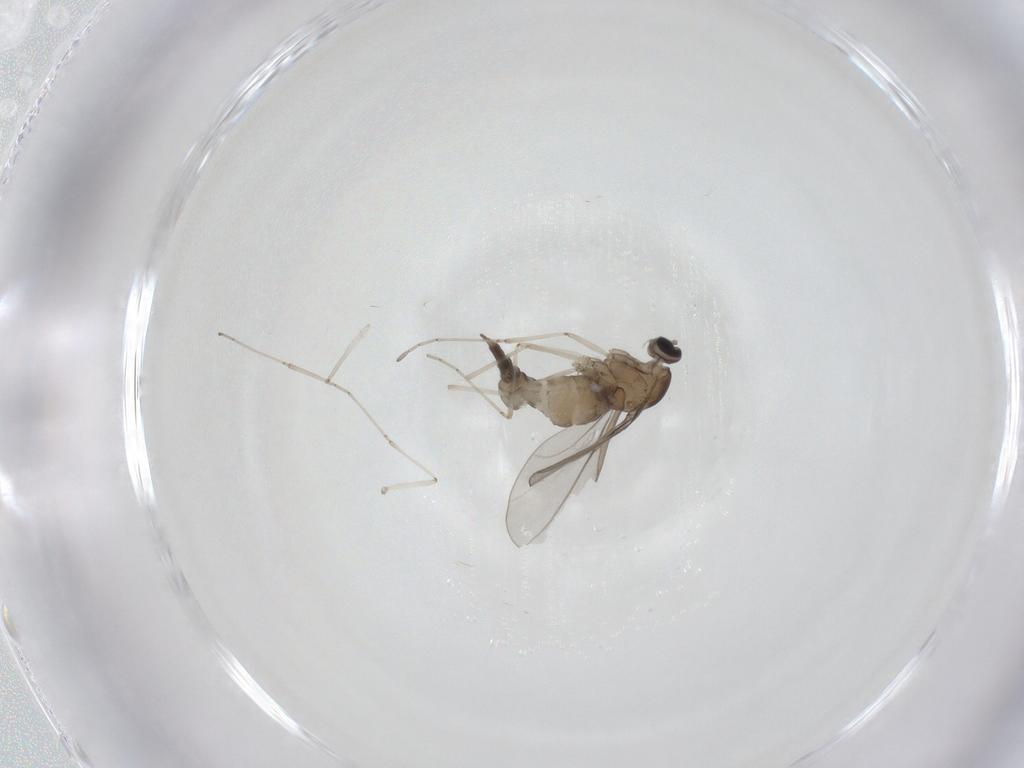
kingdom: Animalia
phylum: Arthropoda
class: Insecta
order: Diptera
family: Cecidomyiidae
